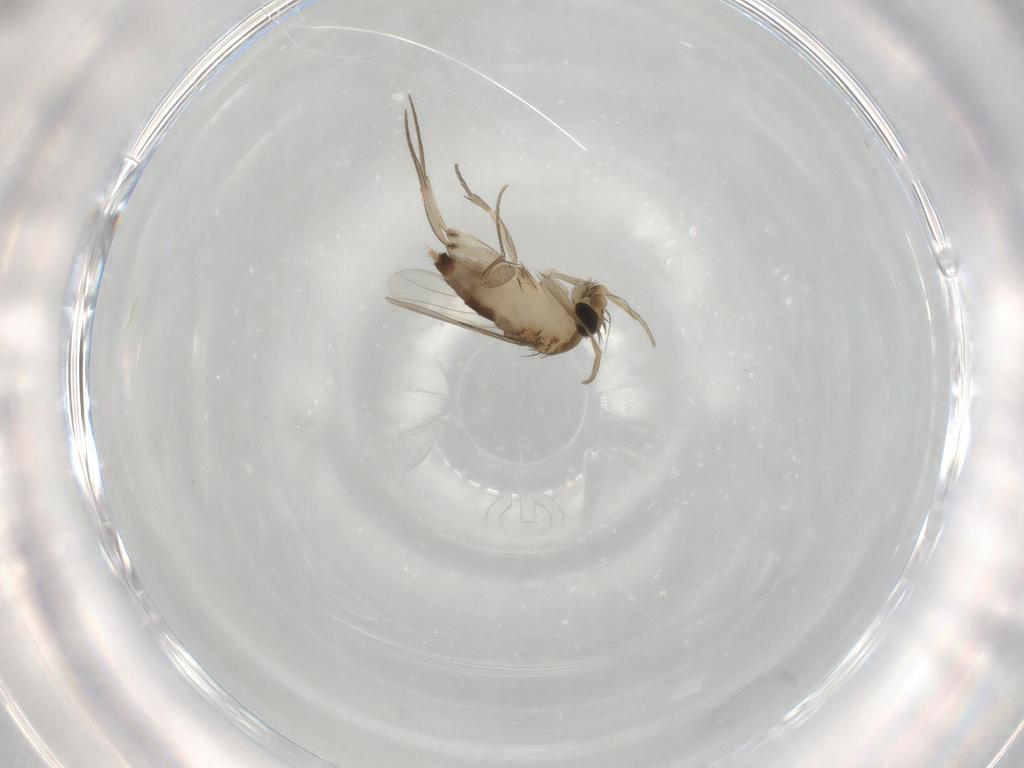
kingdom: Animalia
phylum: Arthropoda
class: Insecta
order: Diptera
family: Phoridae
